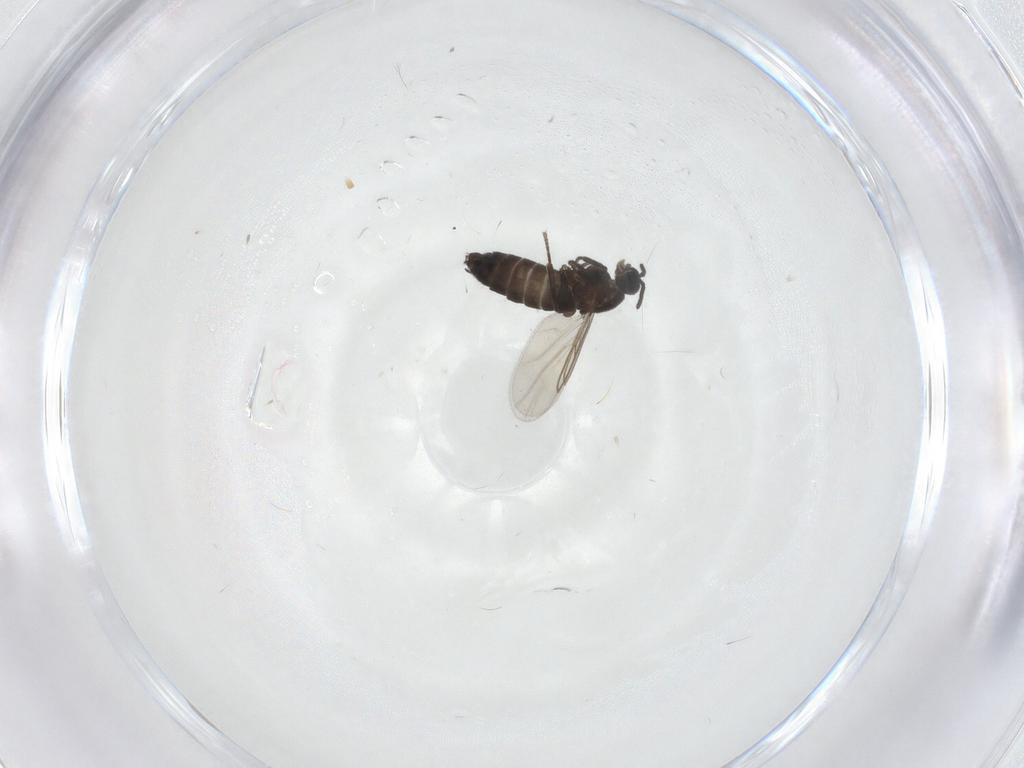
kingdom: Animalia
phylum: Arthropoda
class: Insecta
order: Diptera
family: Scatopsidae
